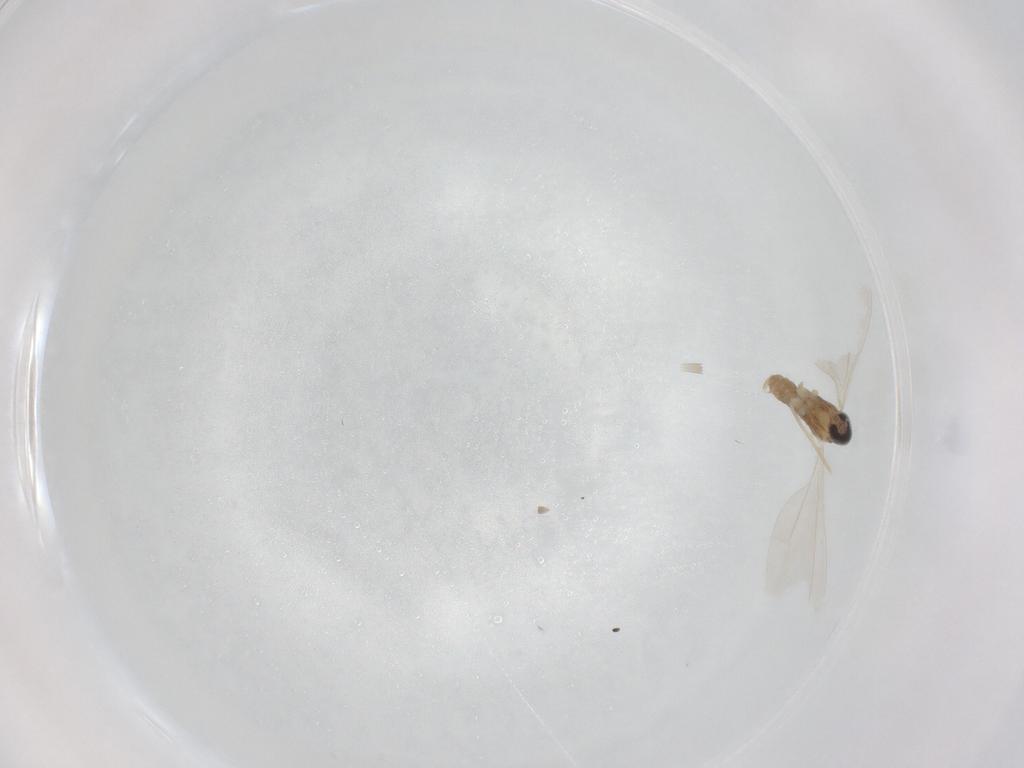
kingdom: Animalia
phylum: Arthropoda
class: Insecta
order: Diptera
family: Cecidomyiidae
